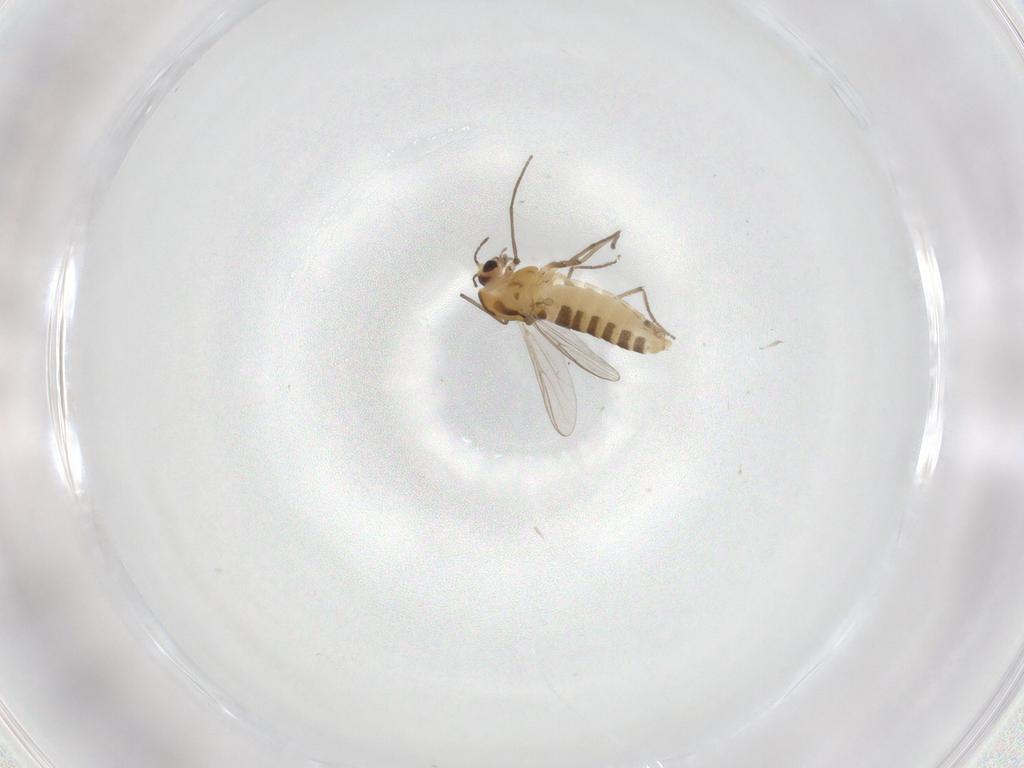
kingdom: Animalia
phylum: Arthropoda
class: Insecta
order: Diptera
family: Chironomidae
